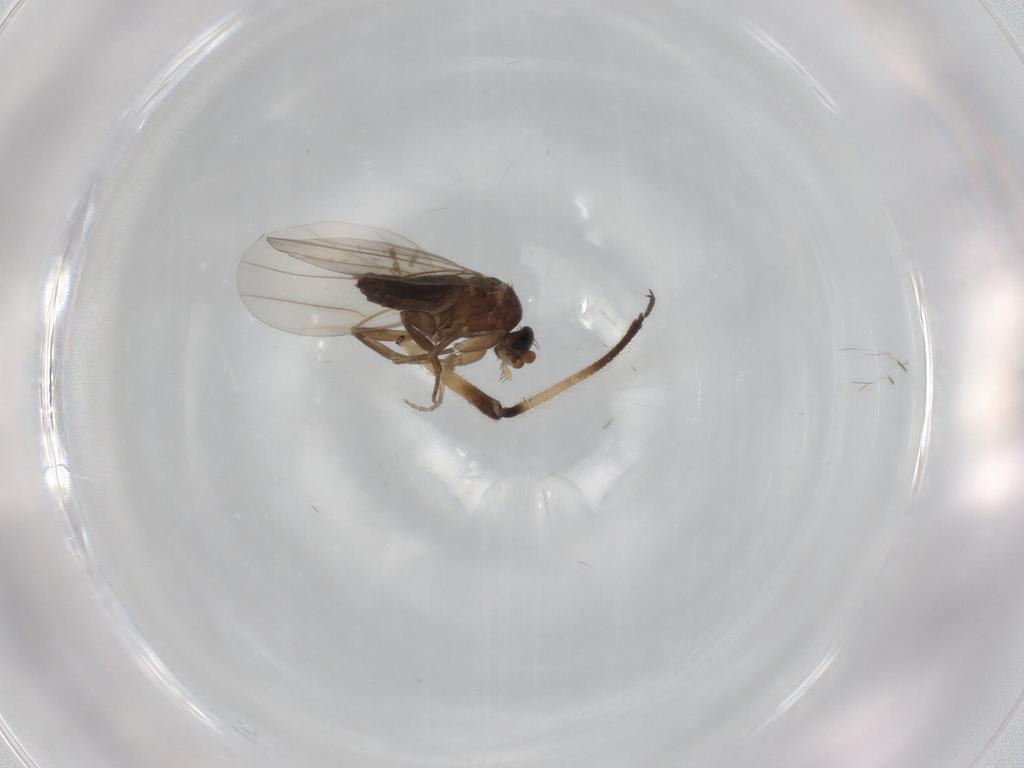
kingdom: Animalia
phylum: Arthropoda
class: Insecta
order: Diptera
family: Phoridae
